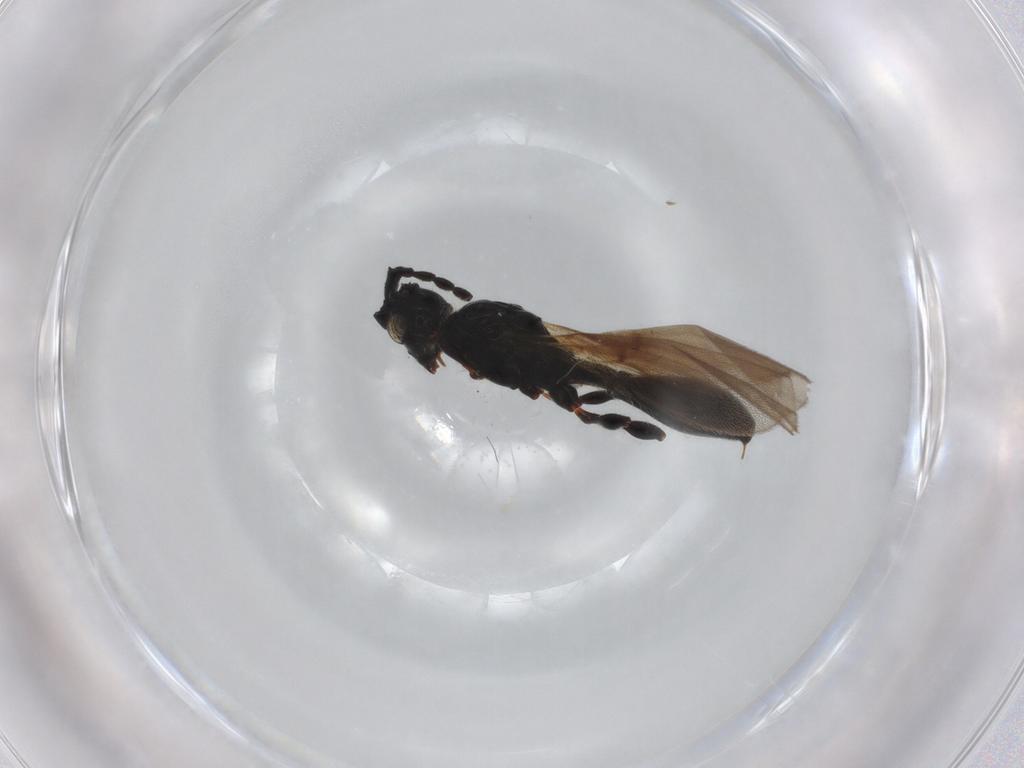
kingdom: Animalia
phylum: Arthropoda
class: Insecta
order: Hymenoptera
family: Diapriidae
